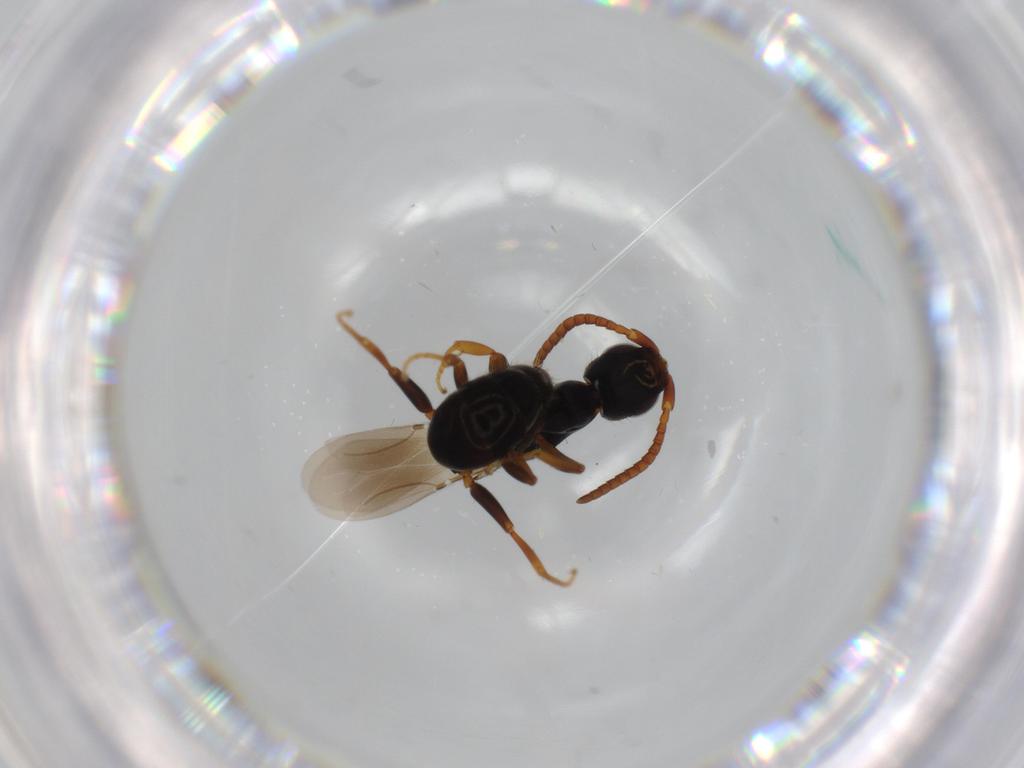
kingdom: Animalia
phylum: Arthropoda
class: Insecta
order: Hymenoptera
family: Bethylidae
